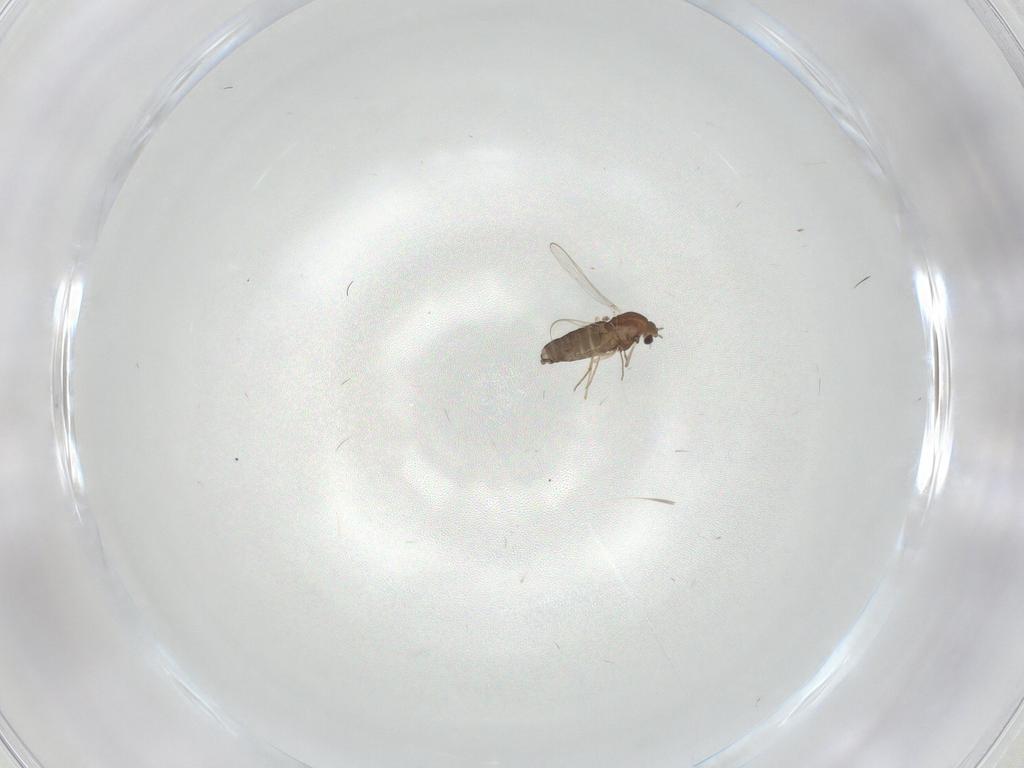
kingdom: Animalia
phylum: Arthropoda
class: Insecta
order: Diptera
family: Chironomidae
